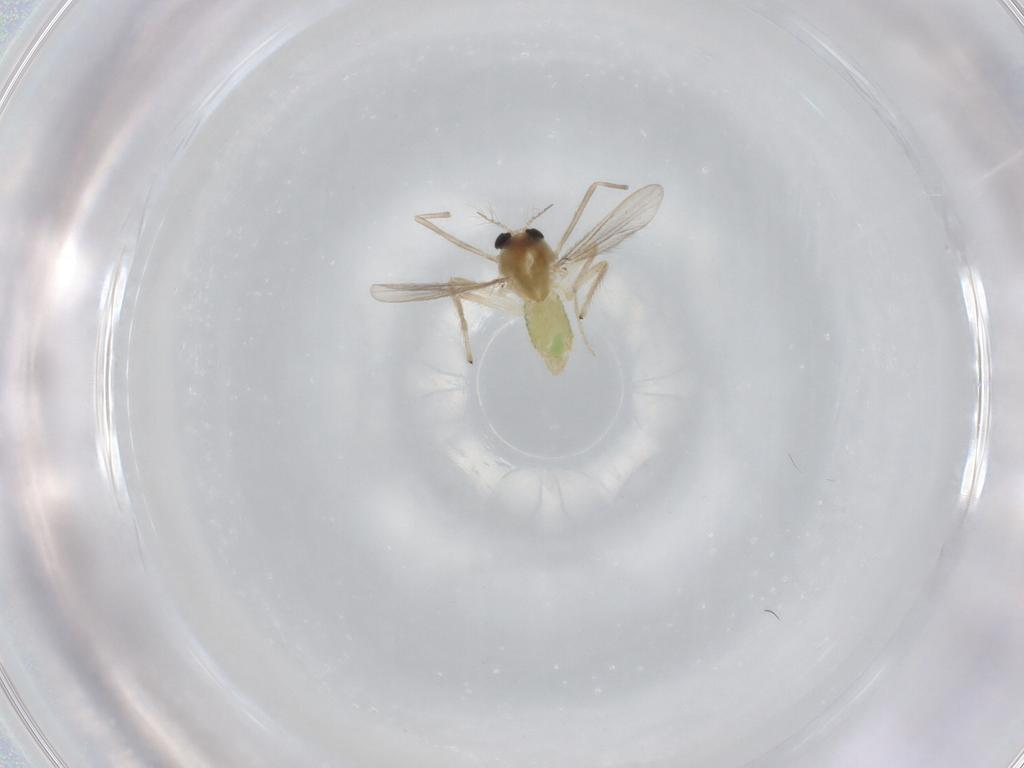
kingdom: Animalia
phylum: Arthropoda
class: Insecta
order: Diptera
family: Chironomidae
